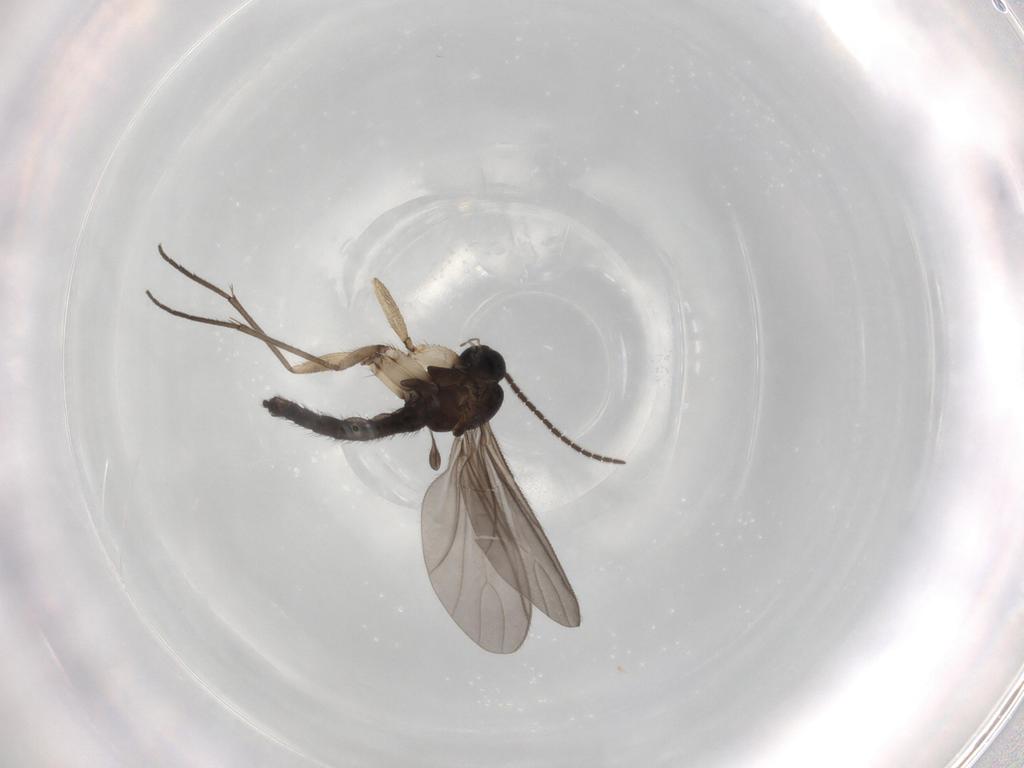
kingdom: Animalia
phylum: Arthropoda
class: Insecta
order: Diptera
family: Sciaridae
